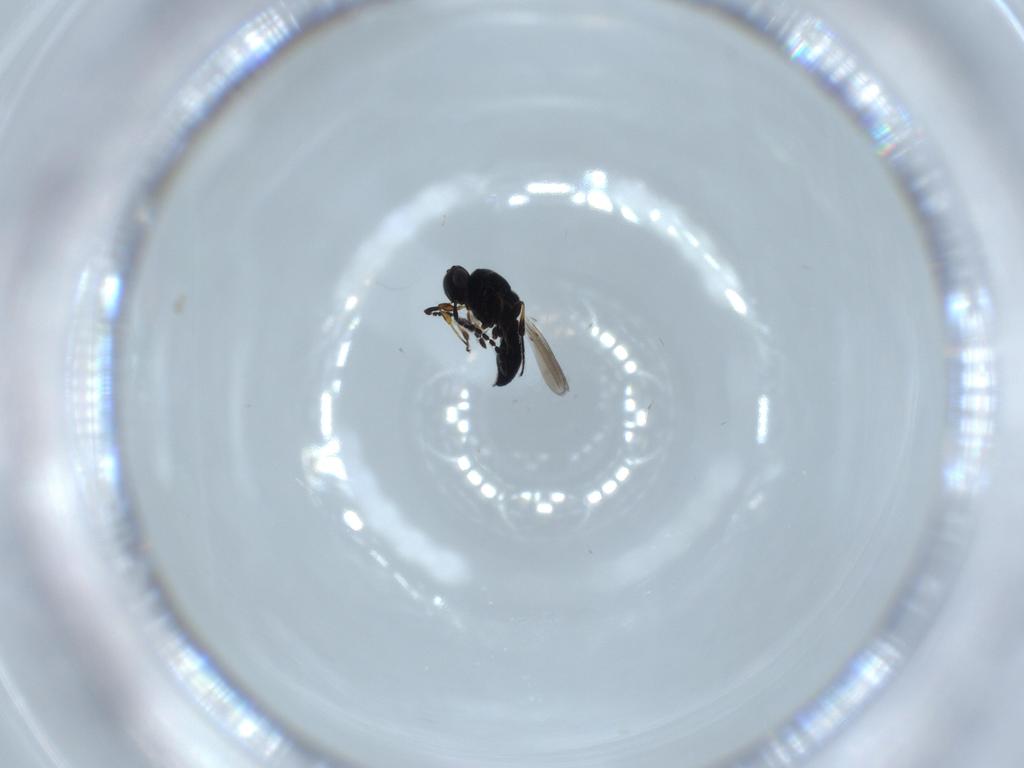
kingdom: Animalia
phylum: Arthropoda
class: Insecta
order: Hymenoptera
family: Platygastridae
